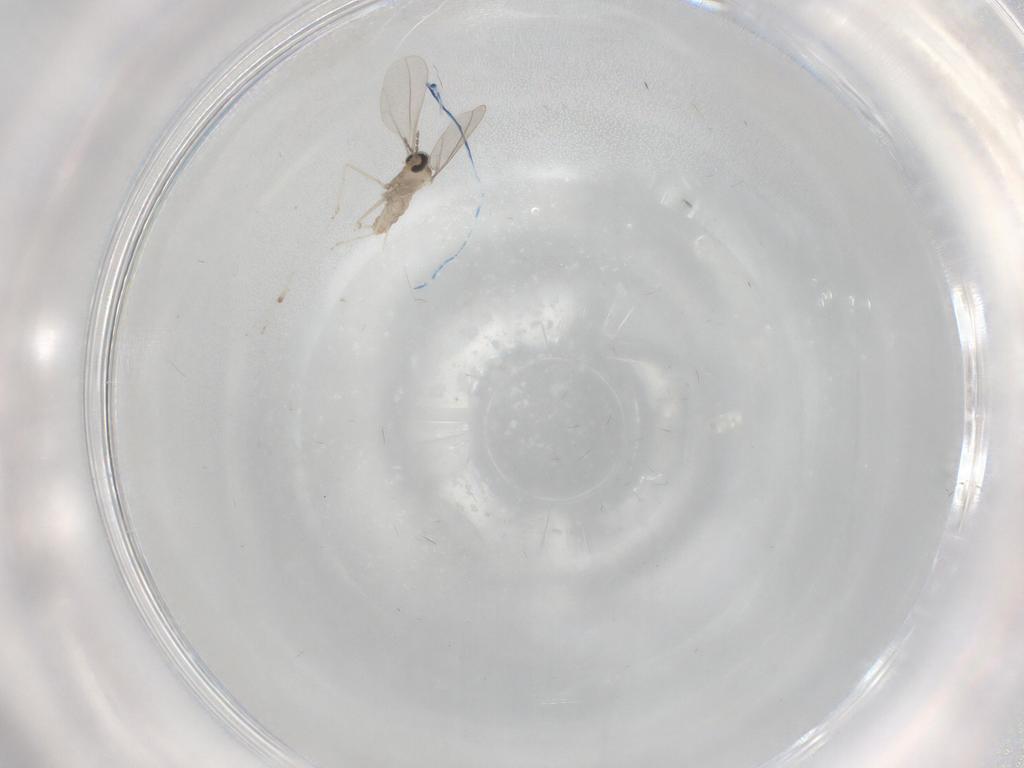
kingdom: Animalia
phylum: Arthropoda
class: Insecta
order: Diptera
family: Cecidomyiidae
